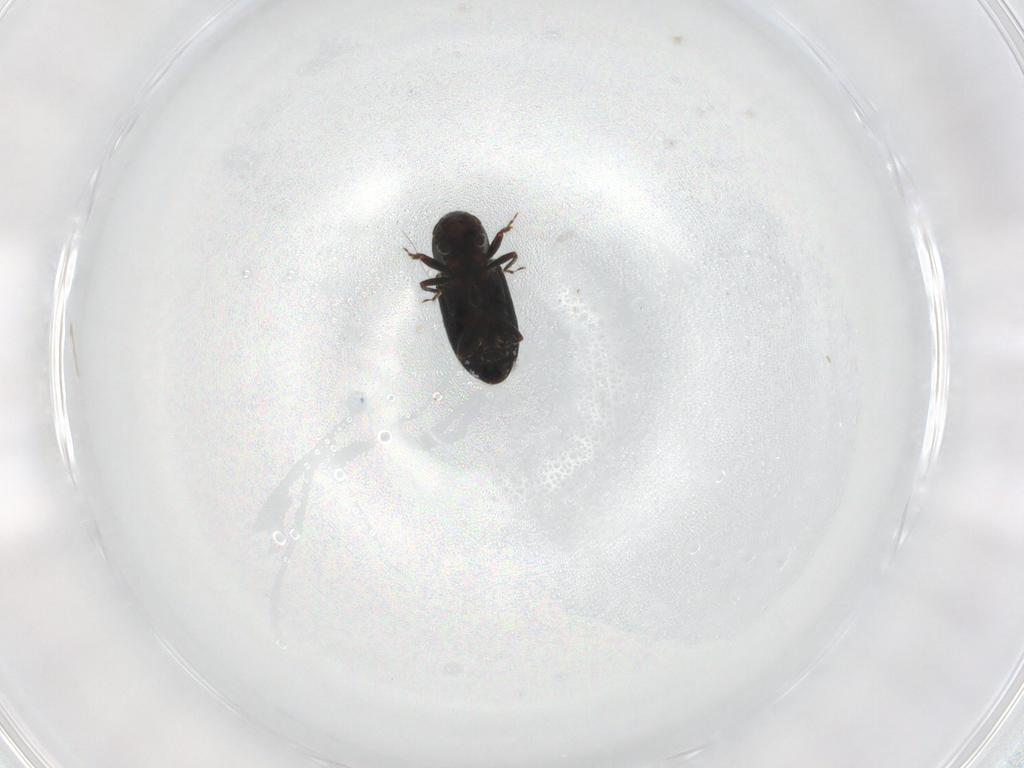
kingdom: Animalia
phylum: Arthropoda
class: Insecta
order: Coleoptera
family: Curculionidae
